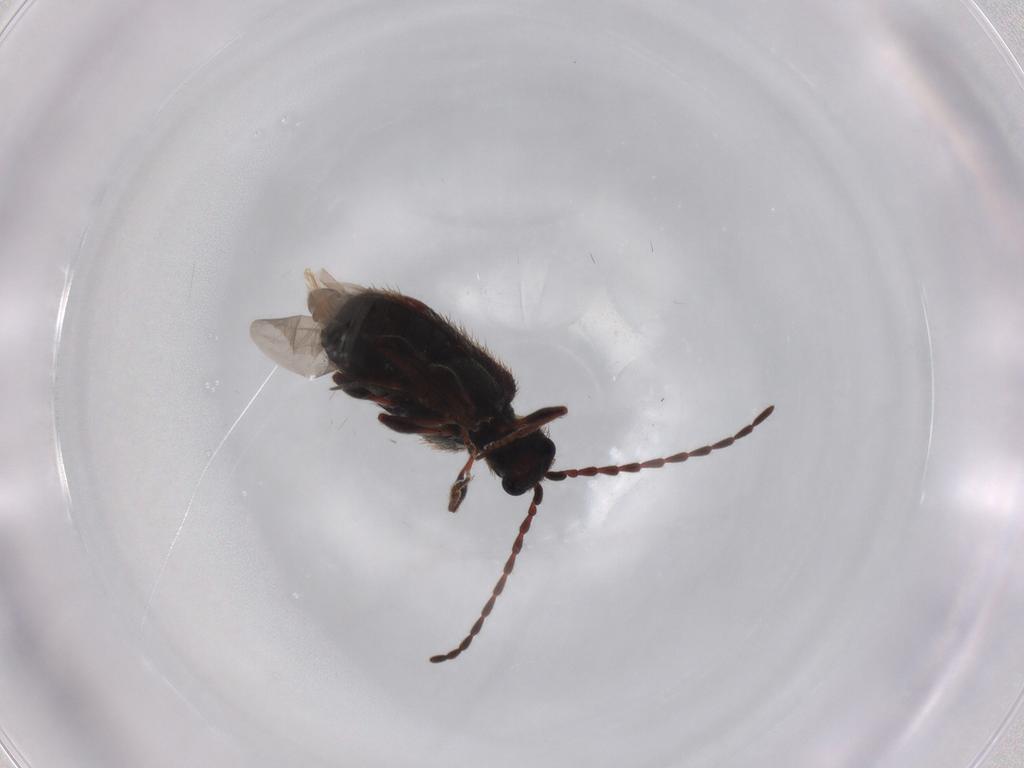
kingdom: Animalia
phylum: Arthropoda
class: Insecta
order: Coleoptera
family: Ptinidae
